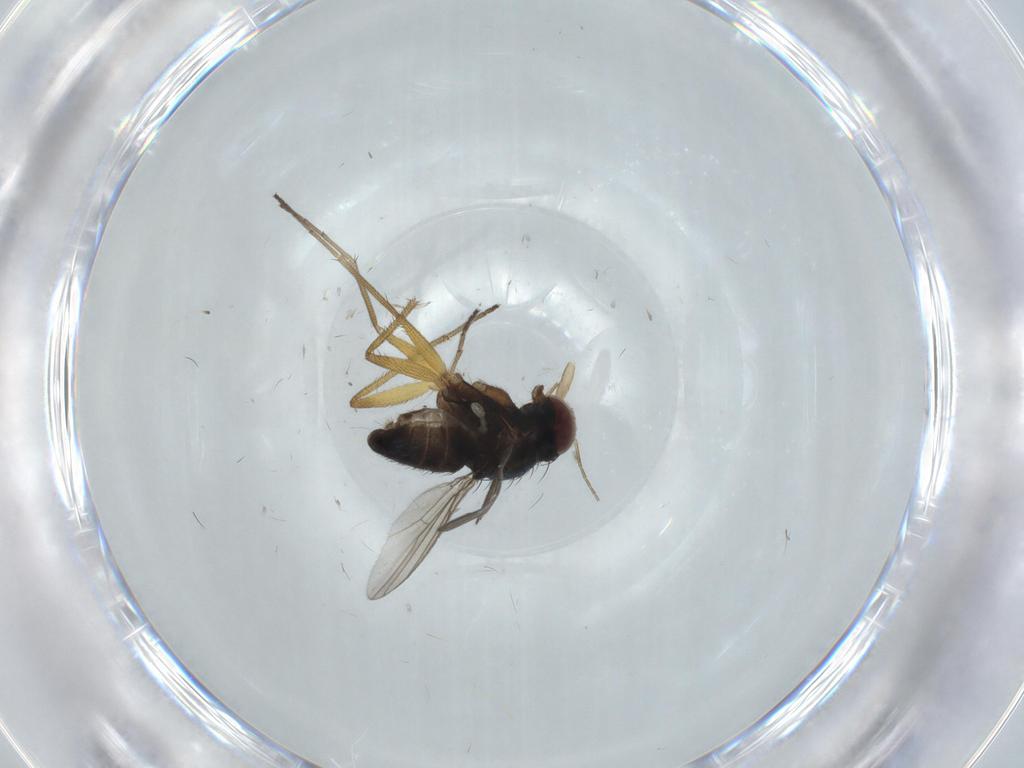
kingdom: Animalia
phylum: Arthropoda
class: Insecta
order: Diptera
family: Dolichopodidae
